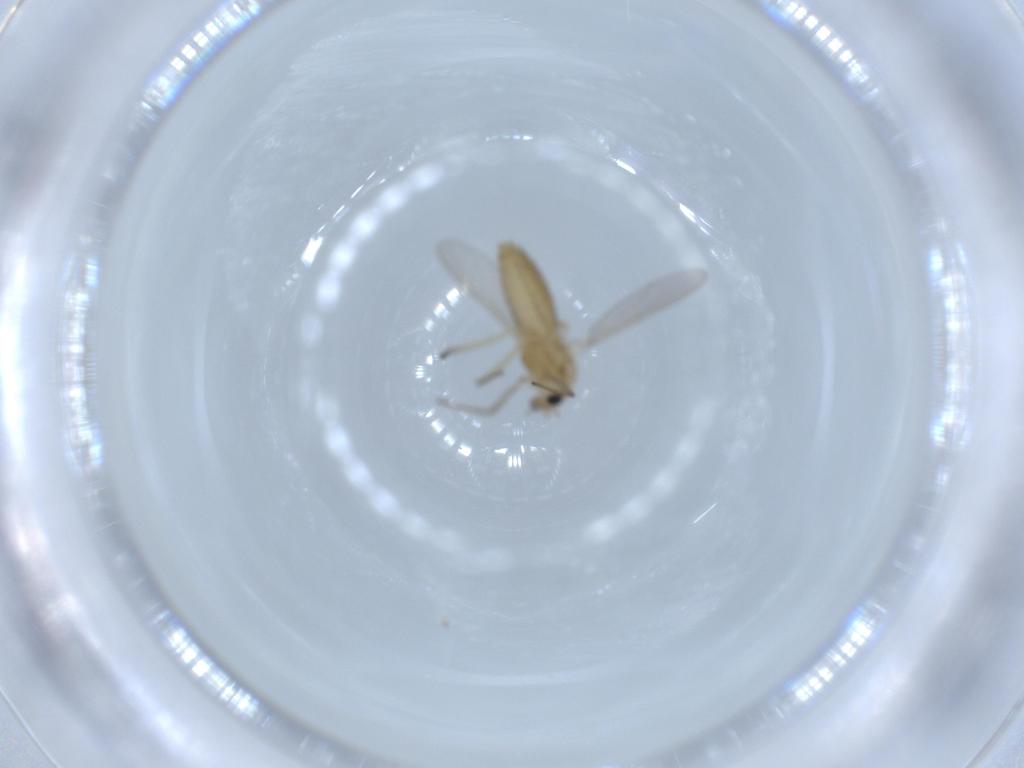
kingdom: Animalia
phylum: Arthropoda
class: Insecta
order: Diptera
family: Chironomidae
